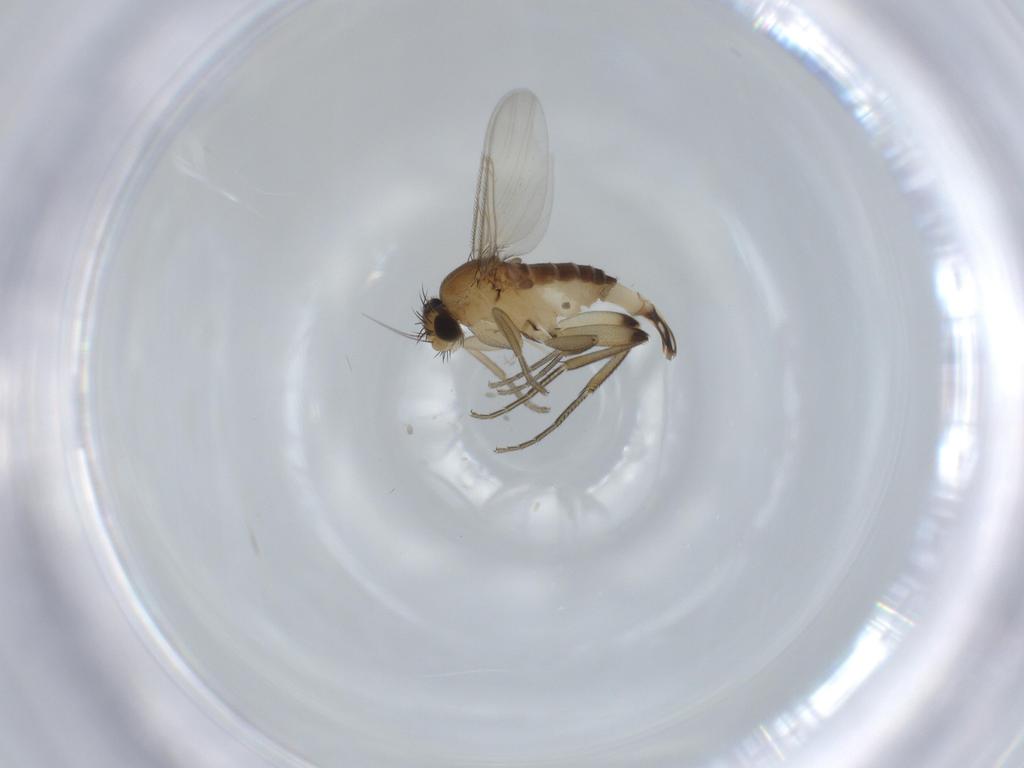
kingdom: Animalia
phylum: Arthropoda
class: Insecta
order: Diptera
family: Phoridae
